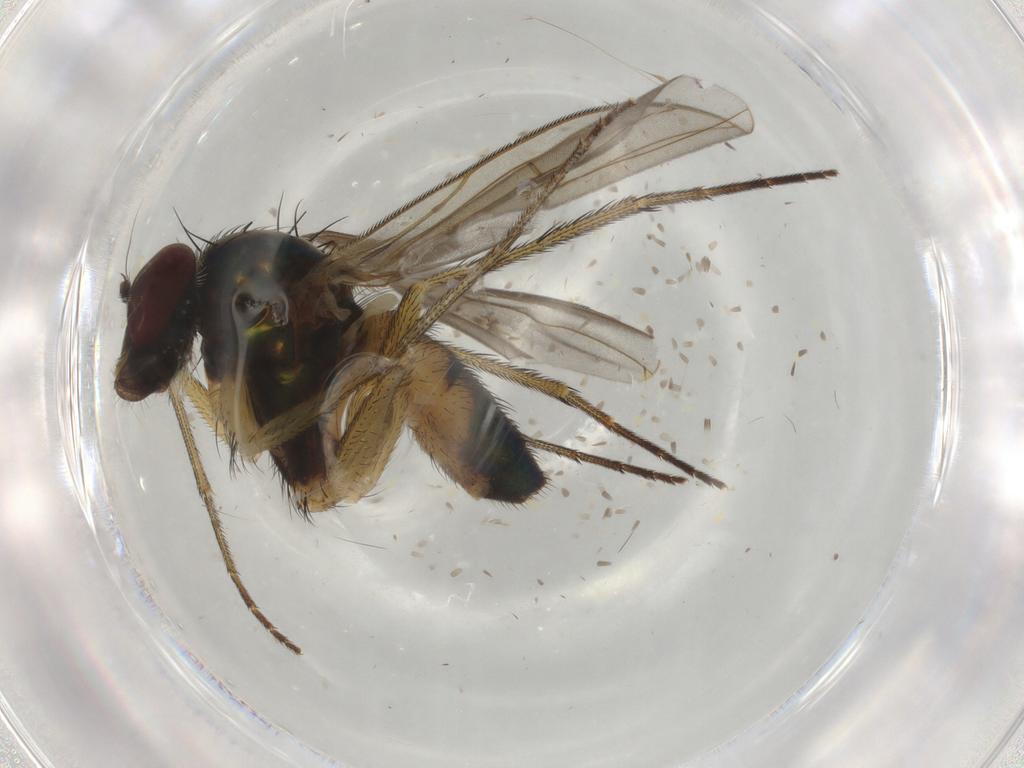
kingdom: Animalia
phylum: Arthropoda
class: Insecta
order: Diptera
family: Dolichopodidae
